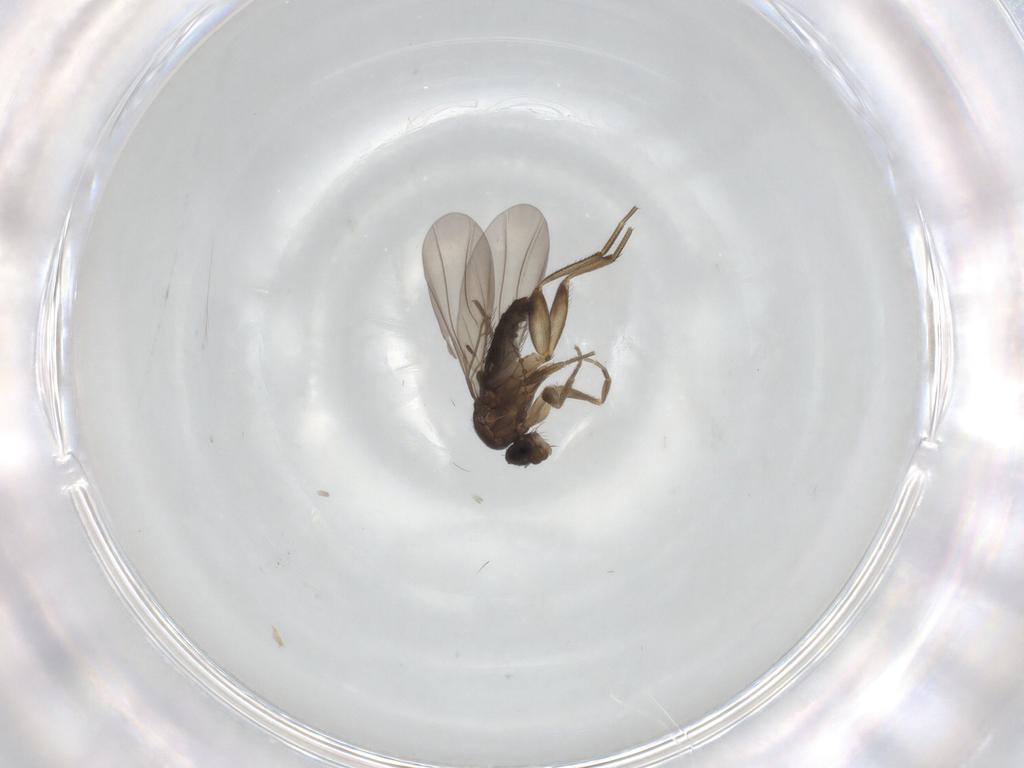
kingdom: Animalia
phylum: Arthropoda
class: Insecta
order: Diptera
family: Phoridae
